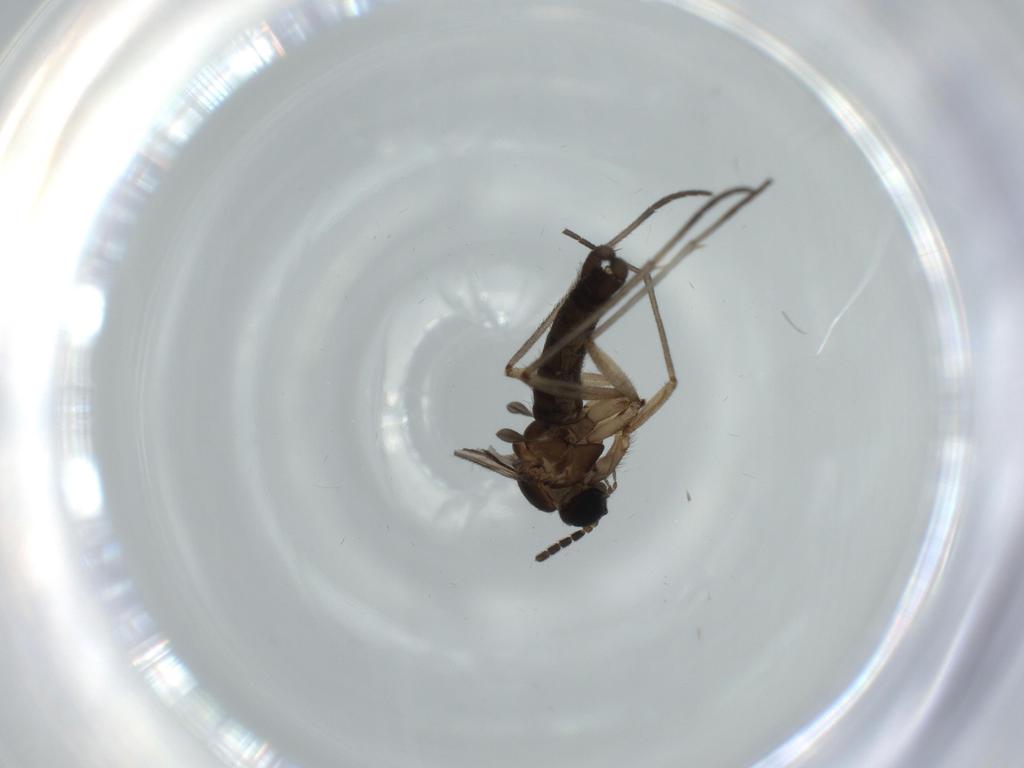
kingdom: Animalia
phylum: Arthropoda
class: Insecta
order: Diptera
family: Sciaridae
